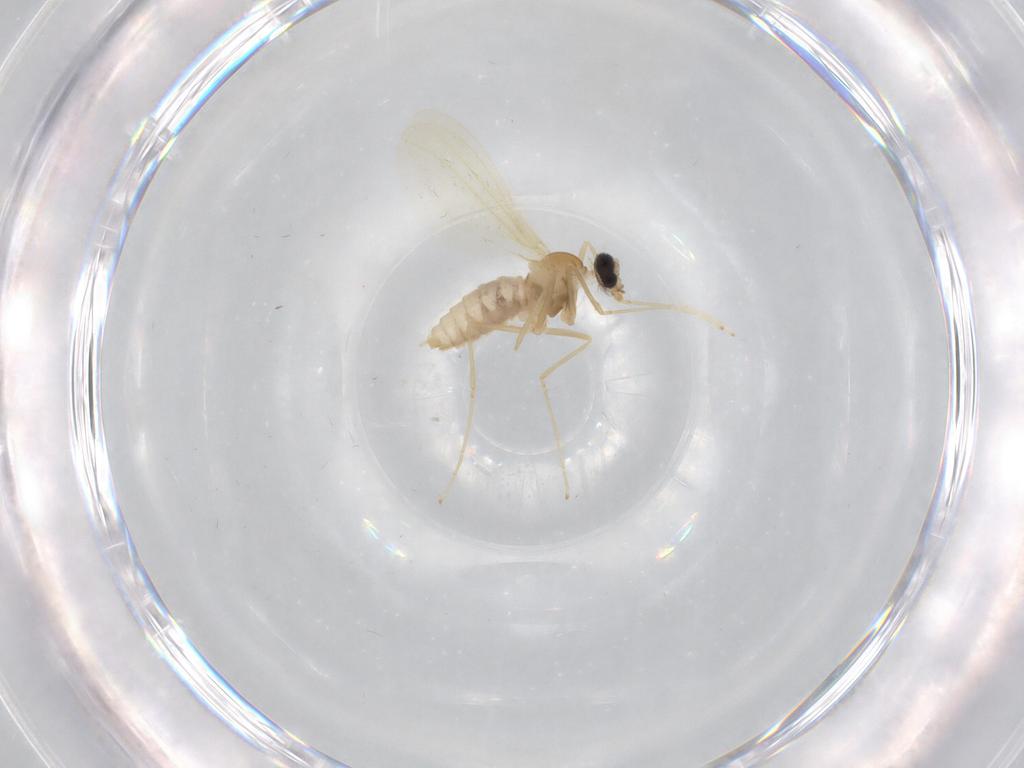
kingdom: Animalia
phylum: Arthropoda
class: Insecta
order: Diptera
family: Cecidomyiidae
